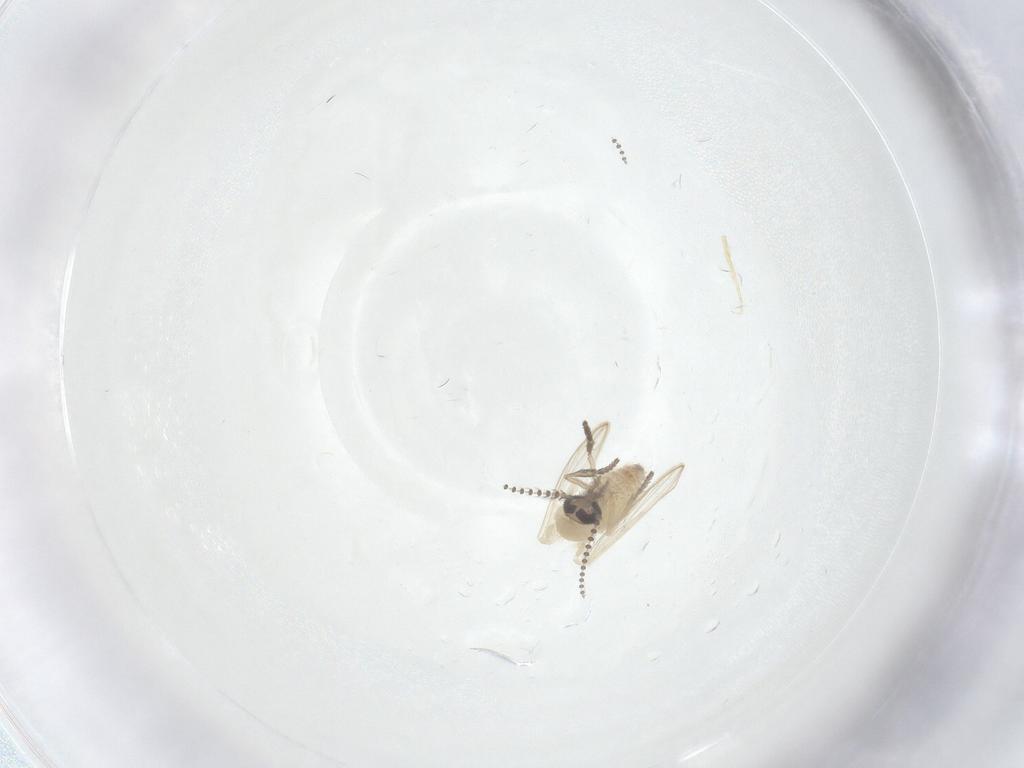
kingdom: Animalia
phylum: Arthropoda
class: Insecta
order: Diptera
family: Psychodidae
